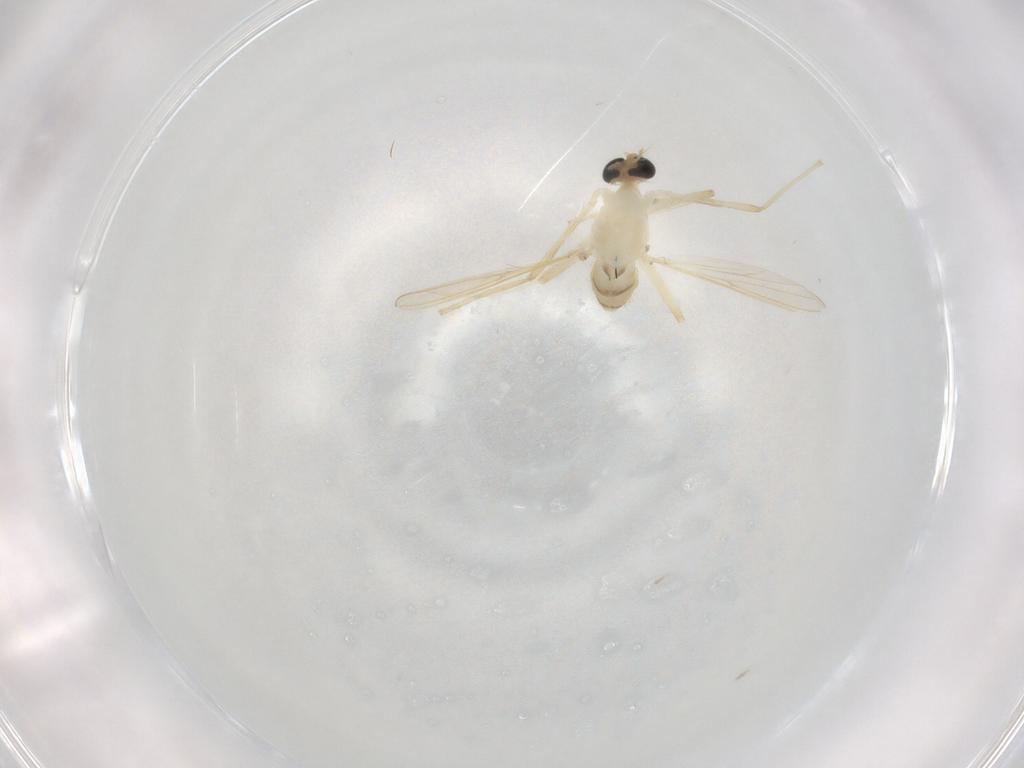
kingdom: Animalia
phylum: Arthropoda
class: Insecta
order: Diptera
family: Chironomidae
